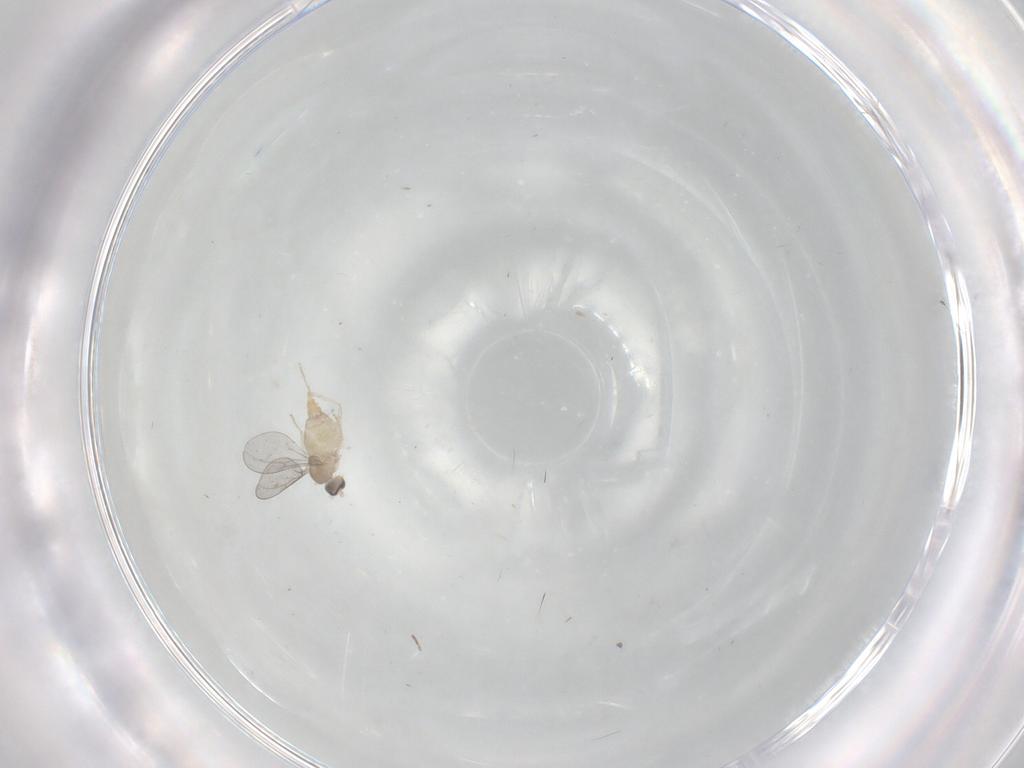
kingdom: Animalia
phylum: Arthropoda
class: Insecta
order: Diptera
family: Cecidomyiidae
